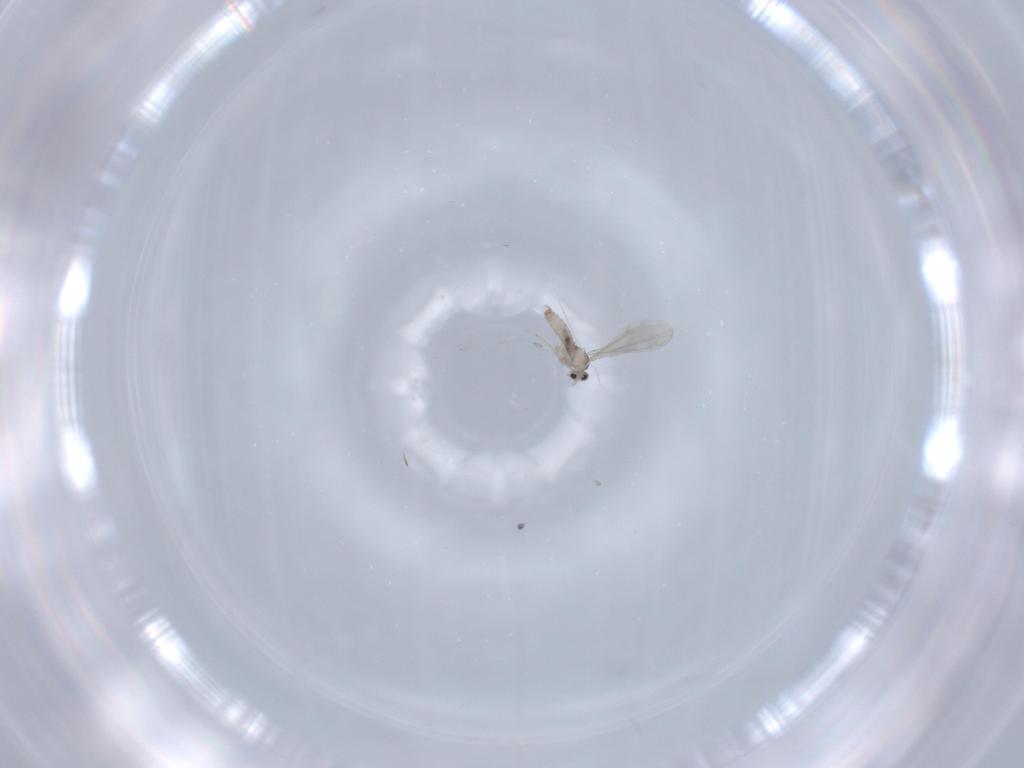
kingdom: Animalia
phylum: Arthropoda
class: Insecta
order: Diptera
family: Cecidomyiidae
